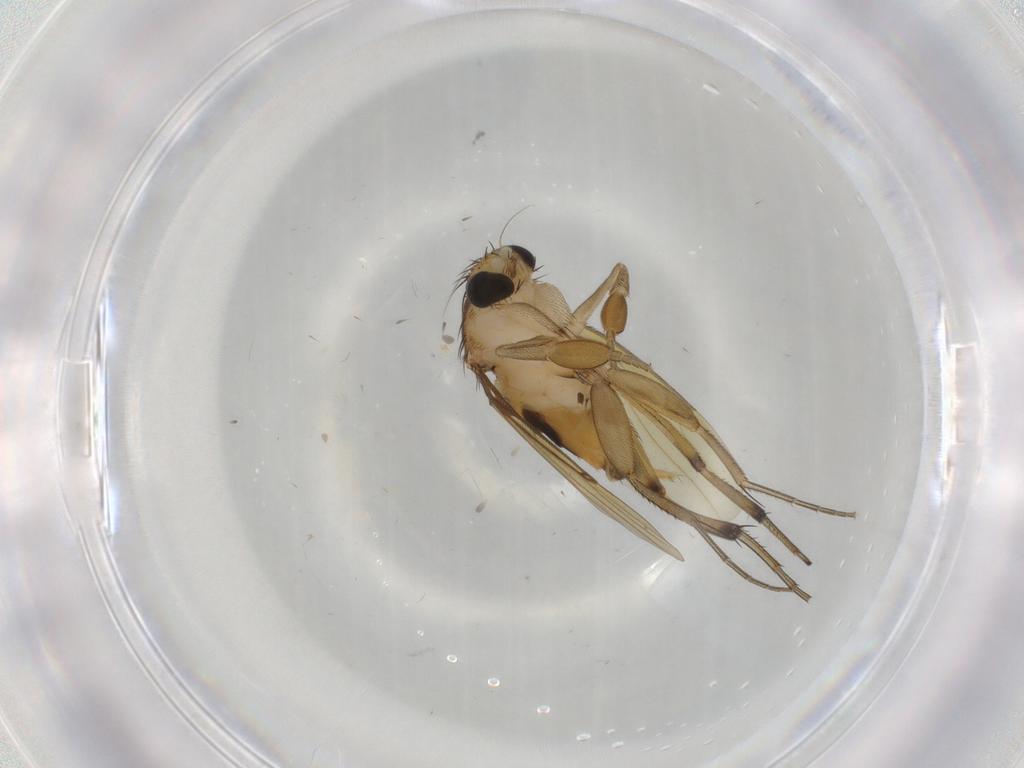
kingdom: Animalia
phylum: Arthropoda
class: Insecta
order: Diptera
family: Phoridae
